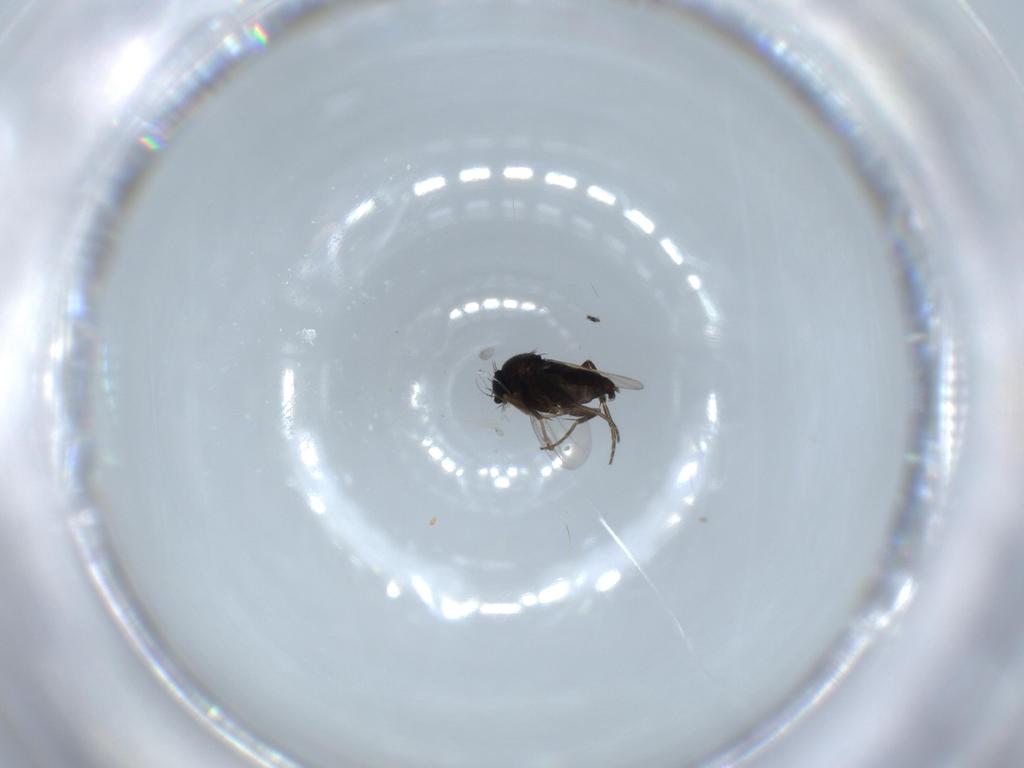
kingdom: Animalia
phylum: Arthropoda
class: Insecta
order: Diptera
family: Phoridae
